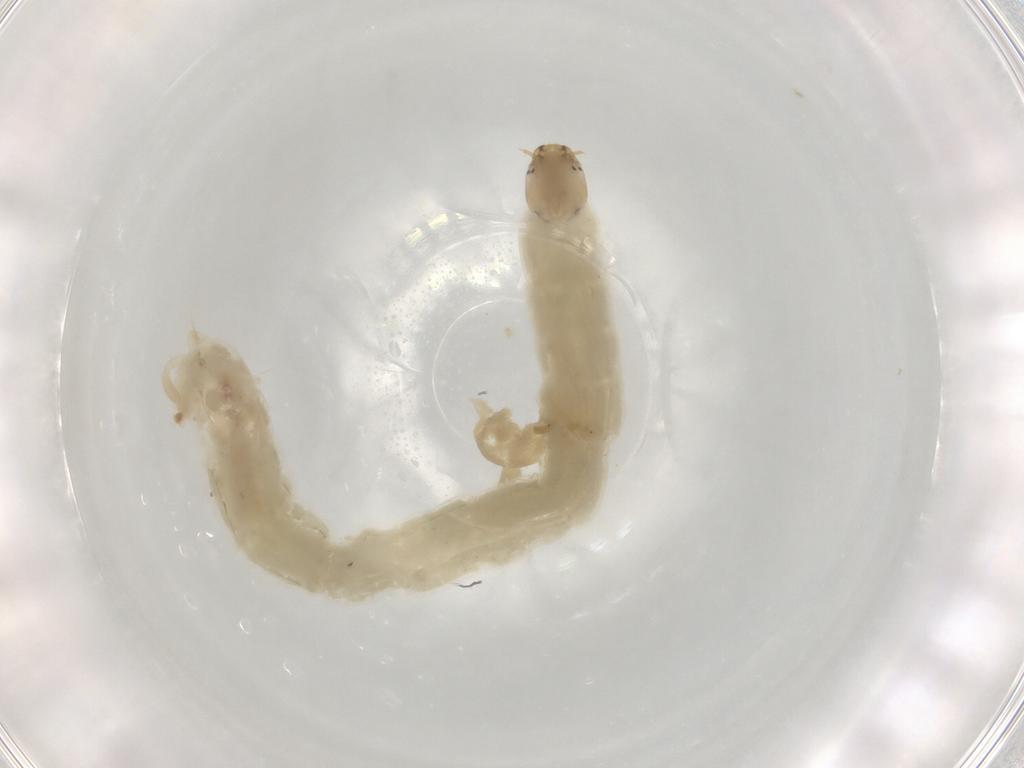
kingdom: Animalia
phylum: Arthropoda
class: Insecta
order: Diptera
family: Chironomidae
